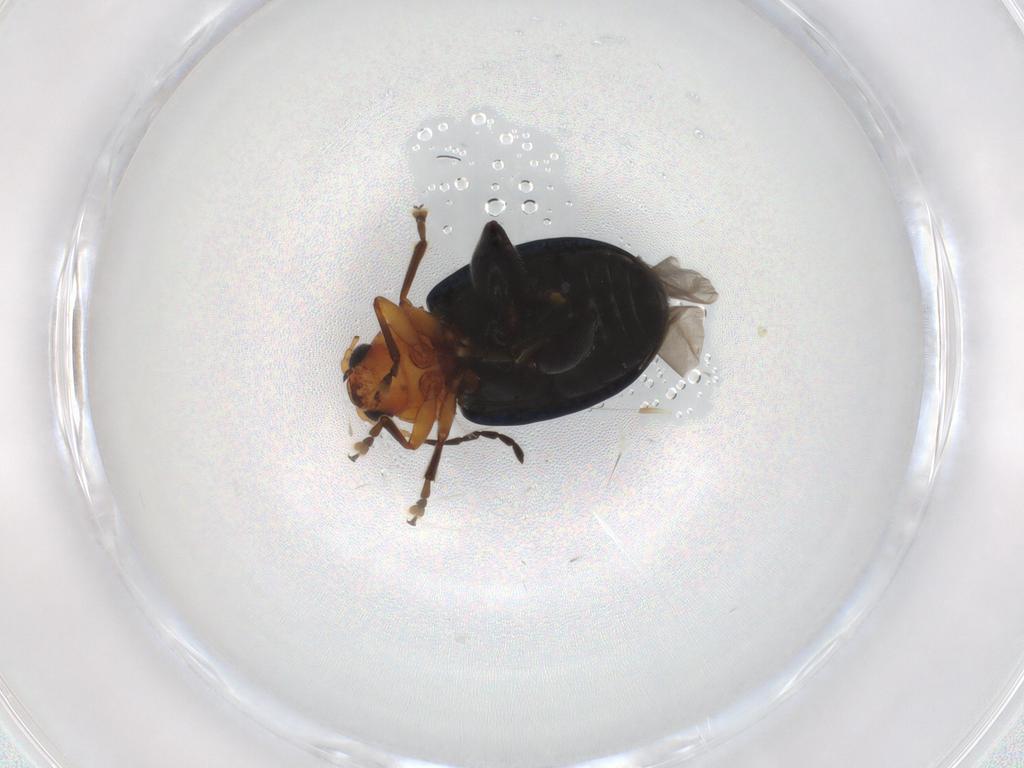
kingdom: Animalia
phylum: Arthropoda
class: Insecta
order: Coleoptera
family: Chrysomelidae
